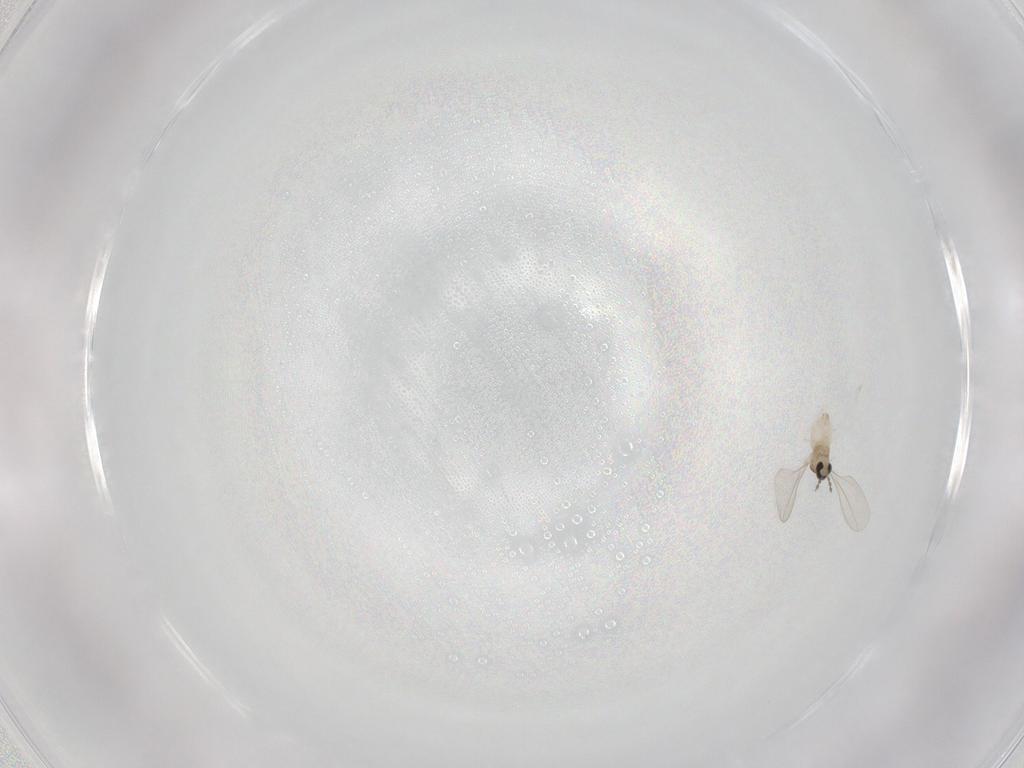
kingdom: Animalia
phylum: Arthropoda
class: Insecta
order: Diptera
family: Cecidomyiidae
